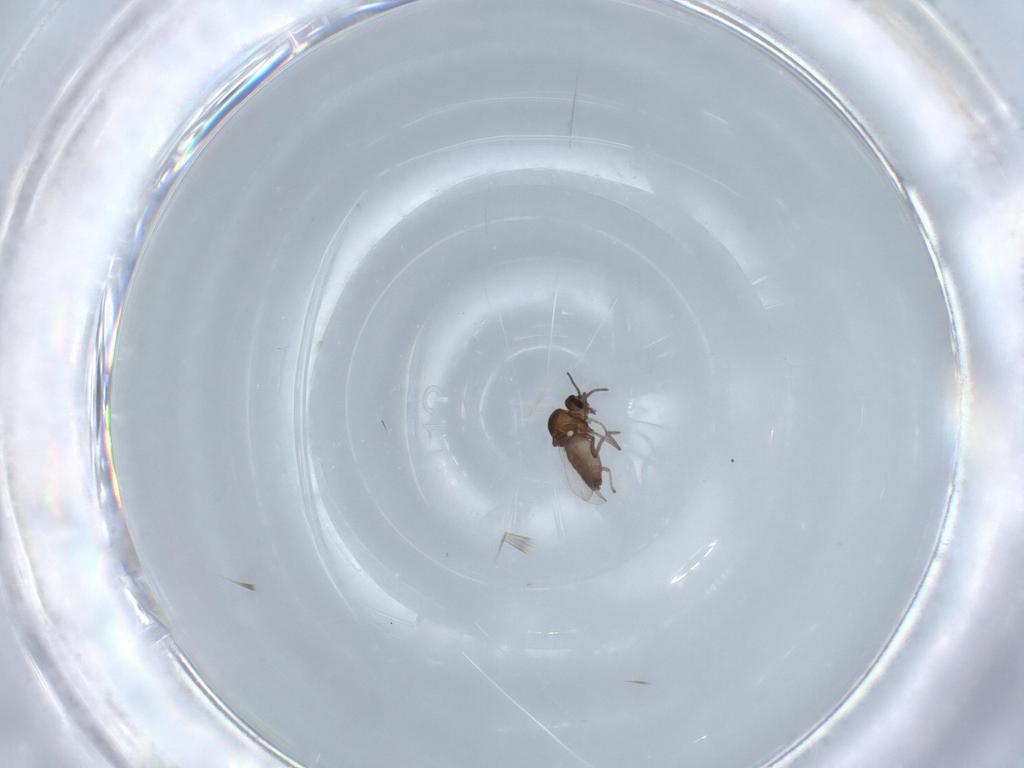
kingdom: Animalia
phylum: Arthropoda
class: Insecta
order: Diptera
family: Ceratopogonidae
